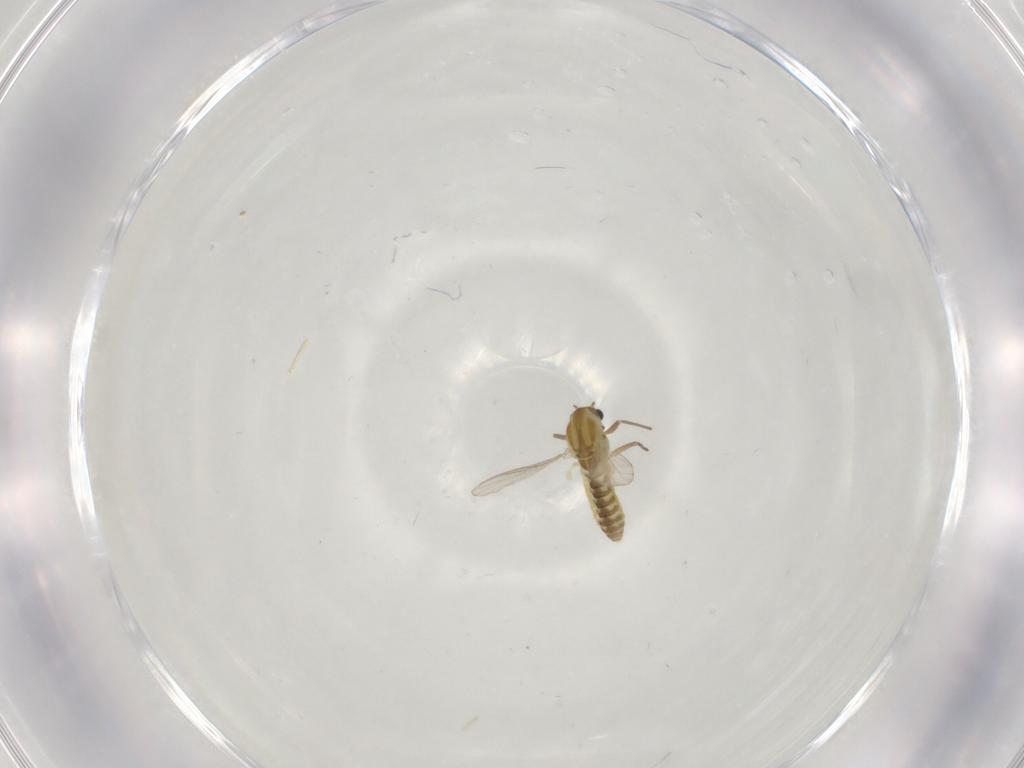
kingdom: Animalia
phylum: Arthropoda
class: Insecta
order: Diptera
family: Chironomidae
